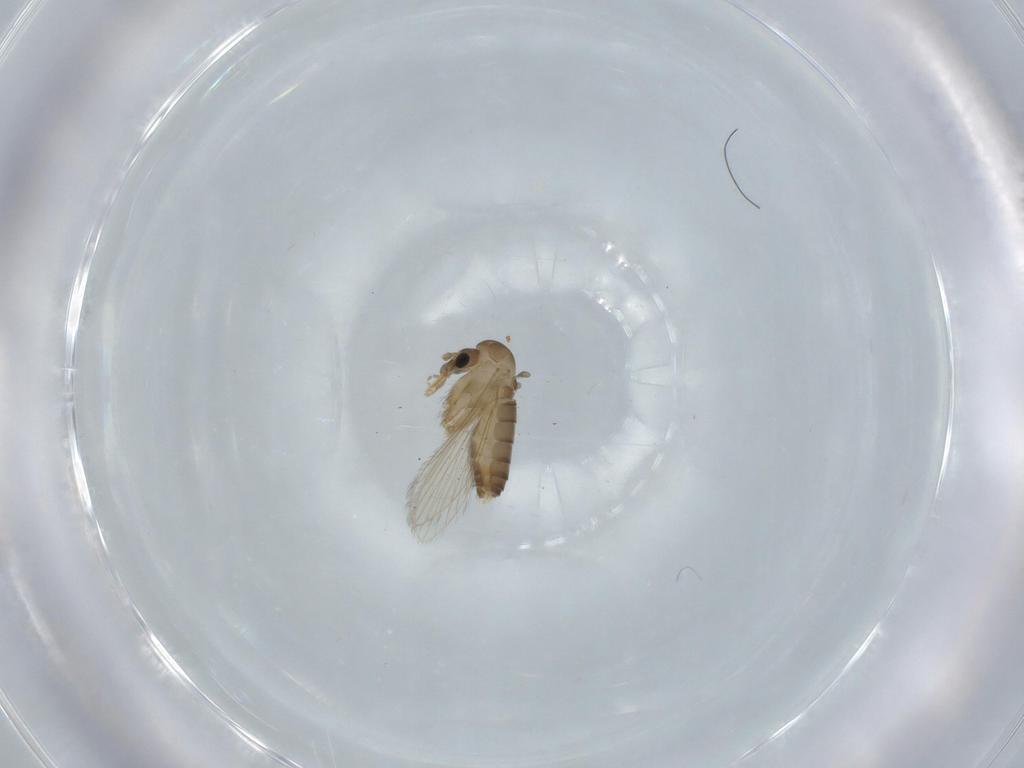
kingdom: Animalia
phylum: Arthropoda
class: Insecta
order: Diptera
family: Psychodidae
